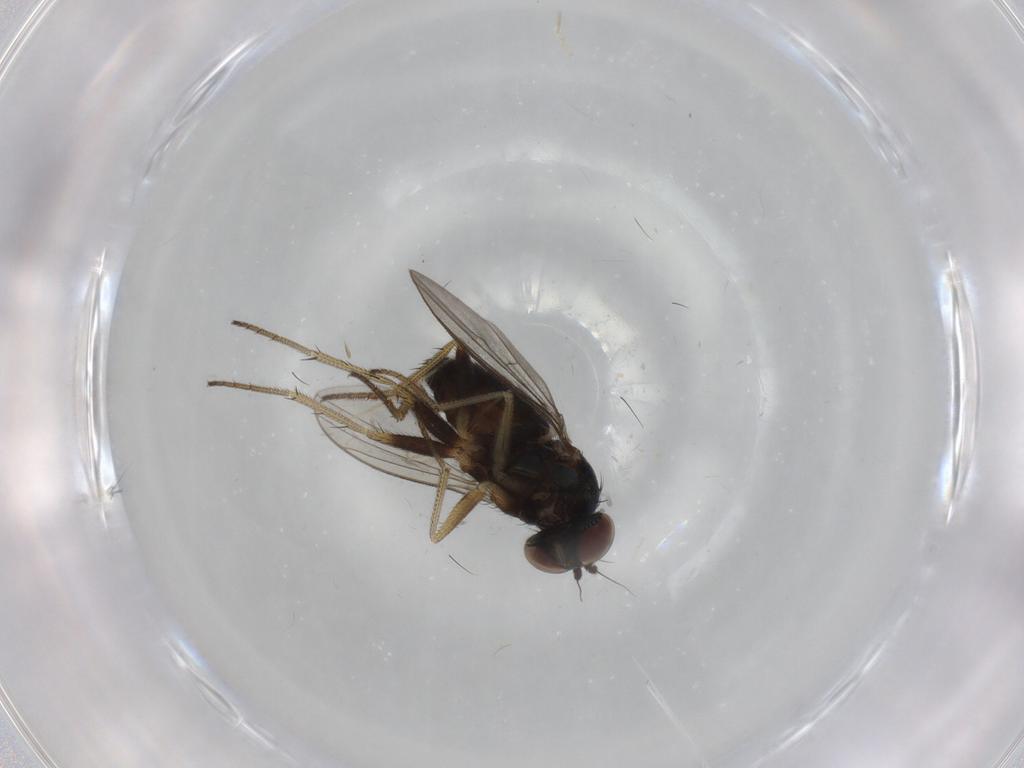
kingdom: Animalia
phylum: Arthropoda
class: Insecta
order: Diptera
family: Dolichopodidae
